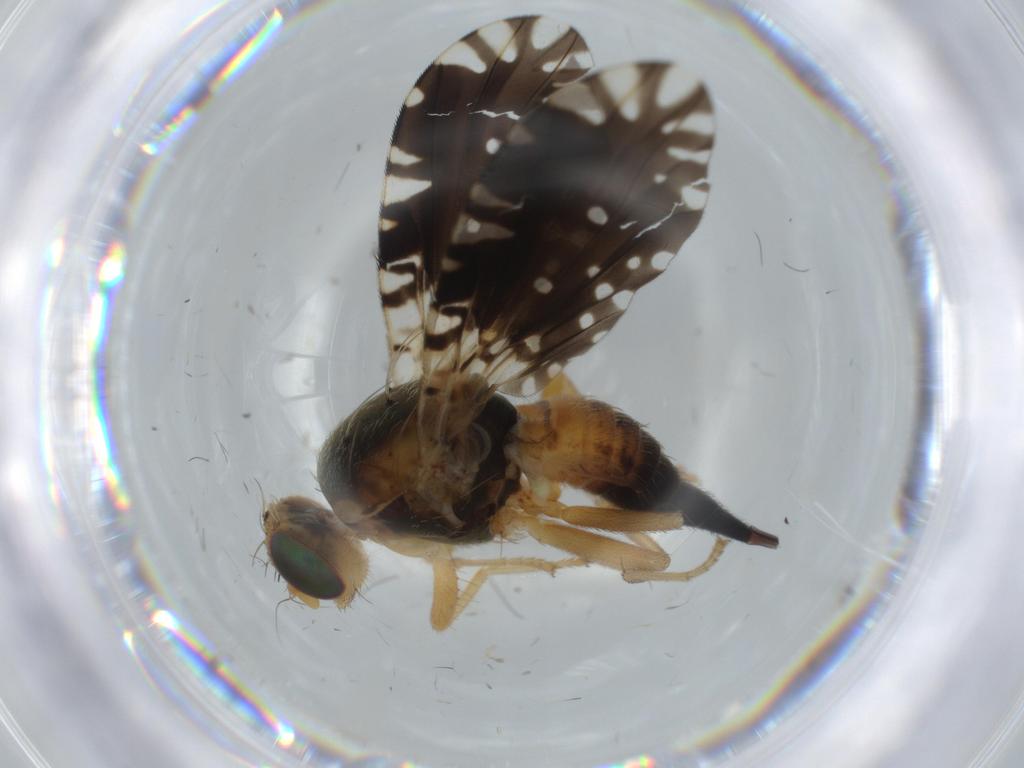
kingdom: Animalia
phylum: Arthropoda
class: Insecta
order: Diptera
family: Tephritidae
